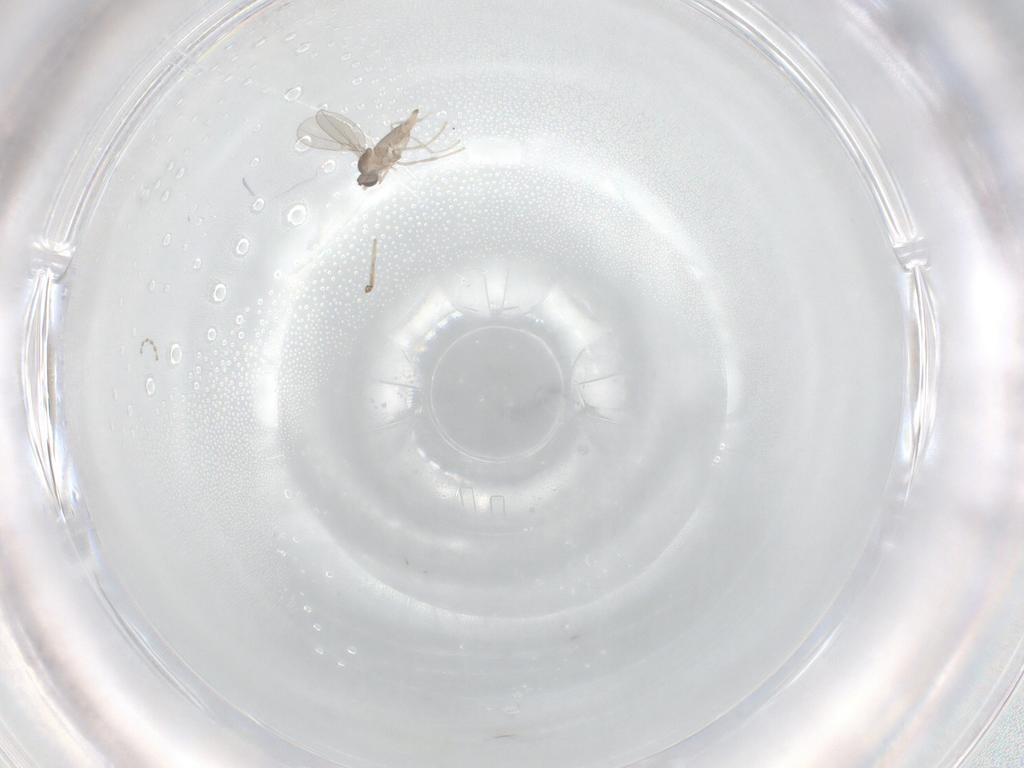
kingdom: Animalia
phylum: Arthropoda
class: Insecta
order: Diptera
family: Cecidomyiidae
